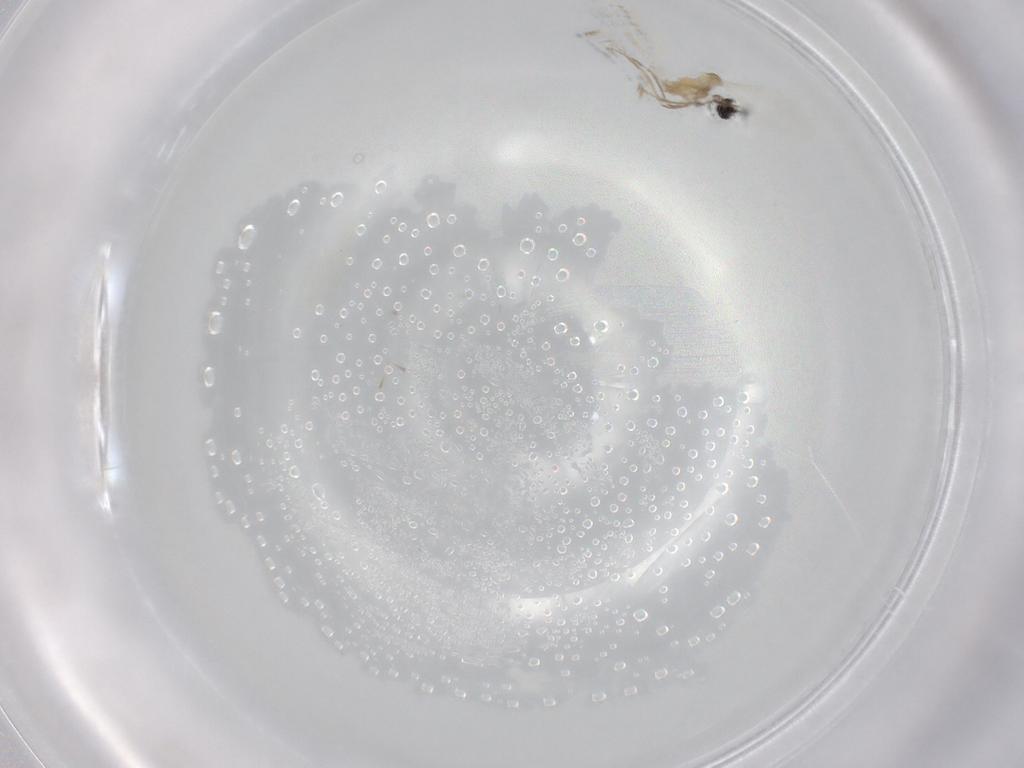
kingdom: Animalia
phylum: Arthropoda
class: Insecta
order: Diptera
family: Cecidomyiidae
